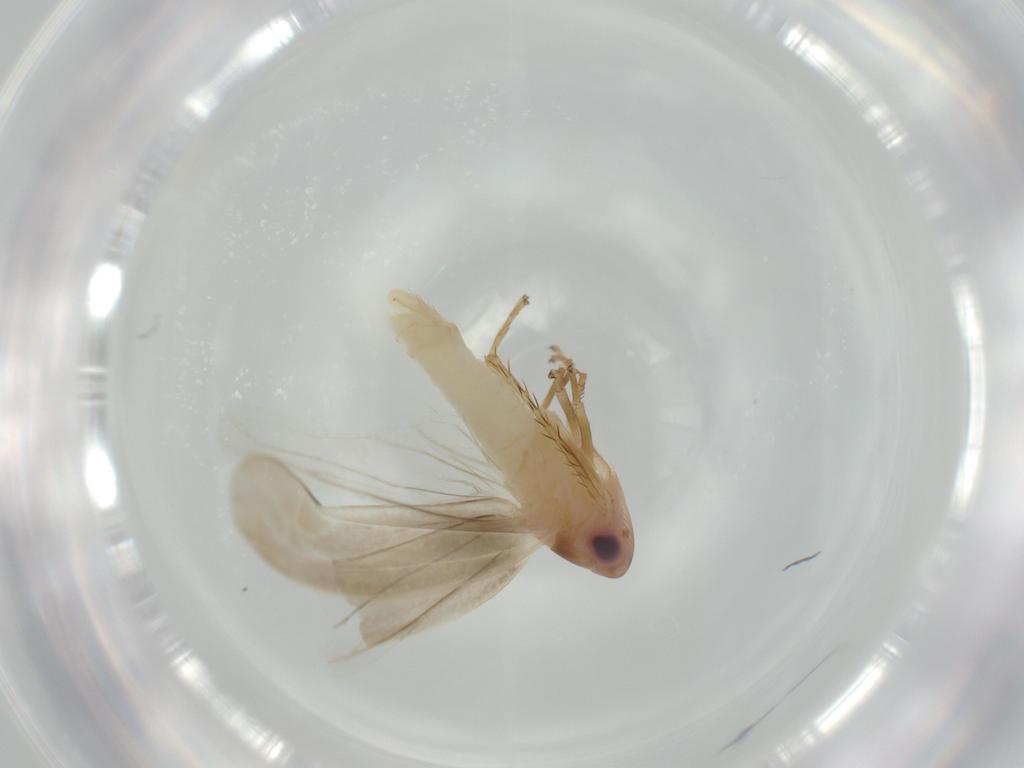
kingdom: Animalia
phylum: Arthropoda
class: Insecta
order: Hemiptera
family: Cicadellidae
